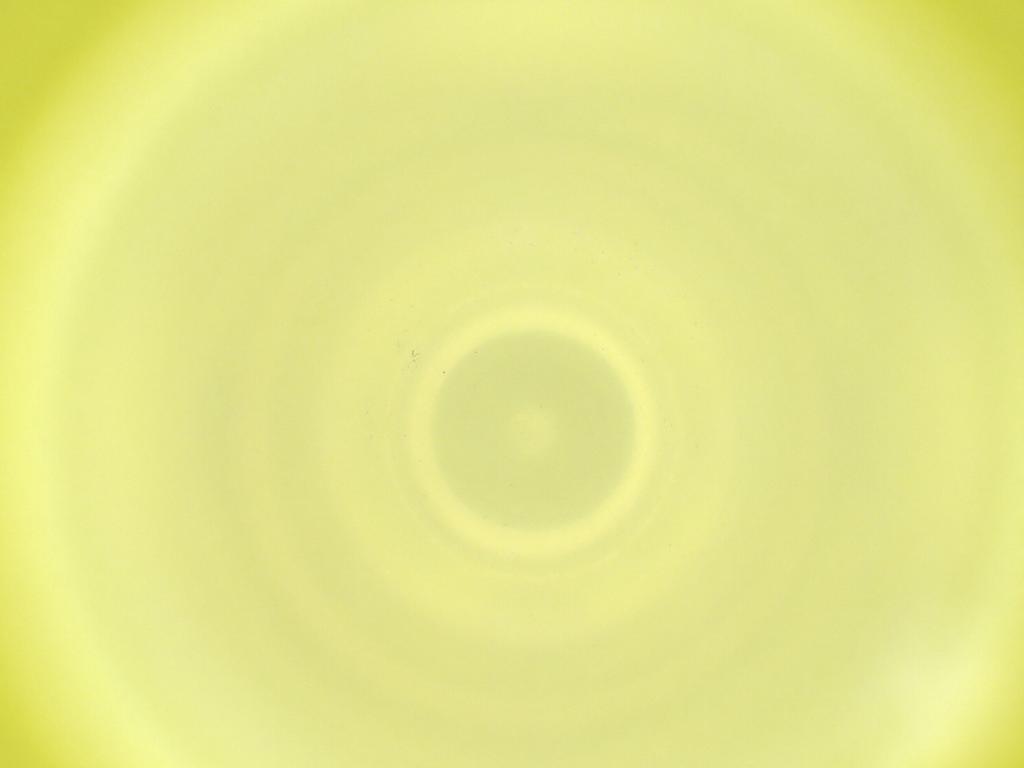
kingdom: Animalia
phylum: Arthropoda
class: Insecta
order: Diptera
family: Cecidomyiidae
